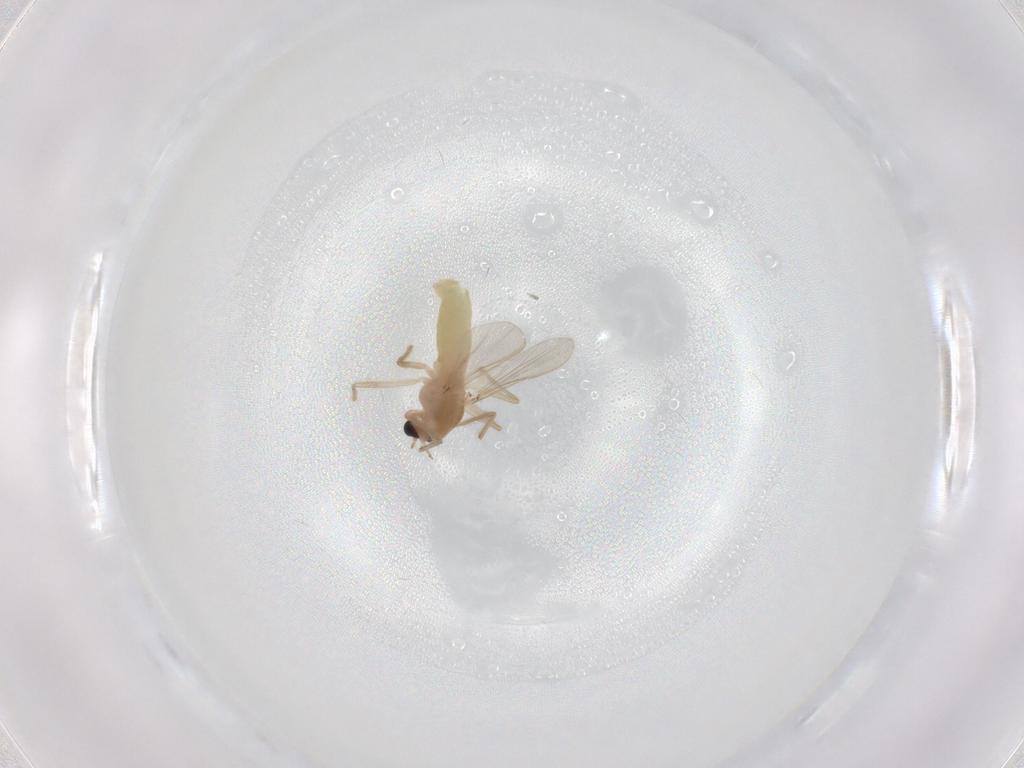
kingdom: Animalia
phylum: Arthropoda
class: Insecta
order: Diptera
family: Chironomidae
